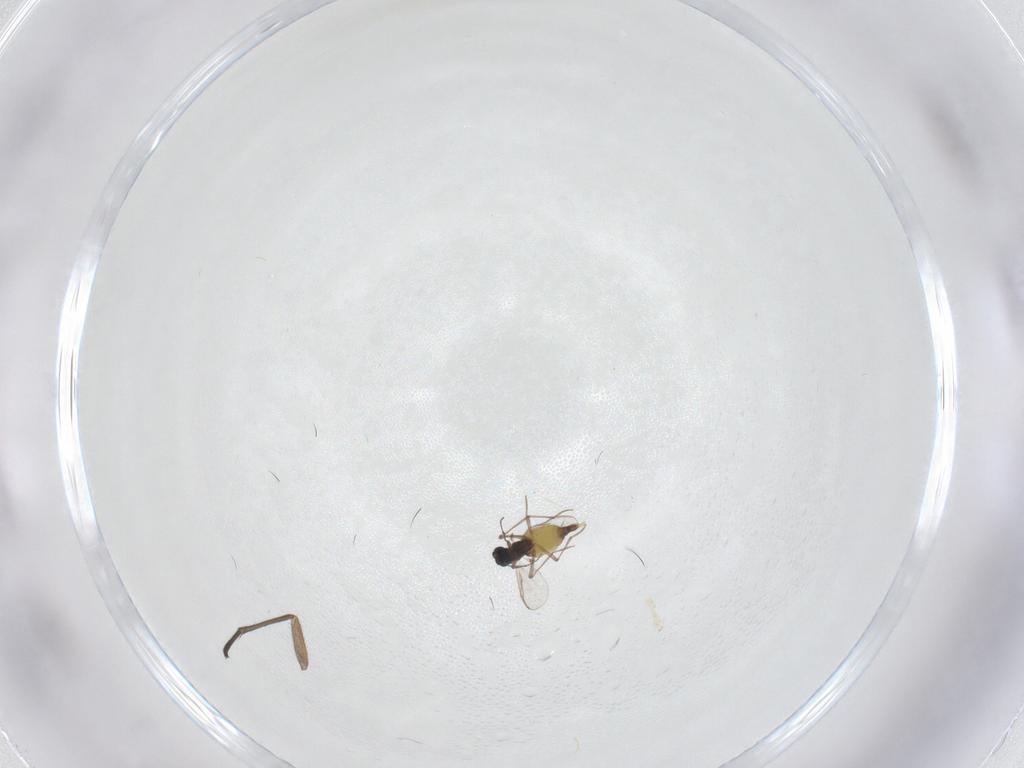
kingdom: Animalia
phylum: Arthropoda
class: Insecta
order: Diptera
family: Chironomidae
